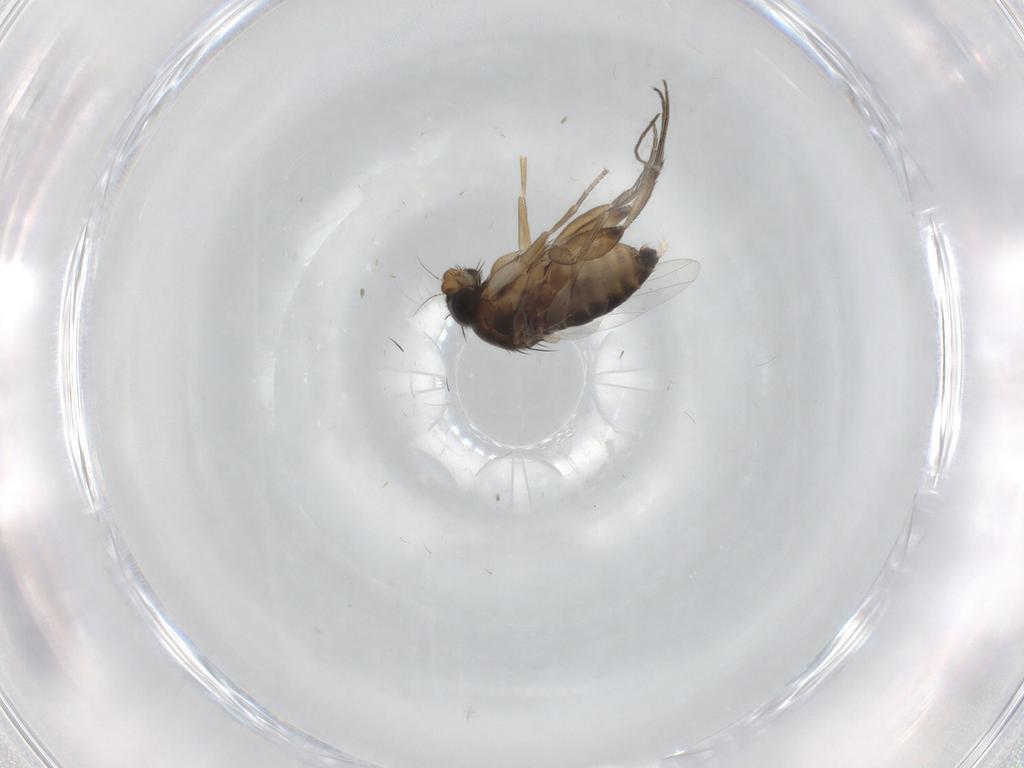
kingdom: Animalia
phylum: Arthropoda
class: Insecta
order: Diptera
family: Phoridae
